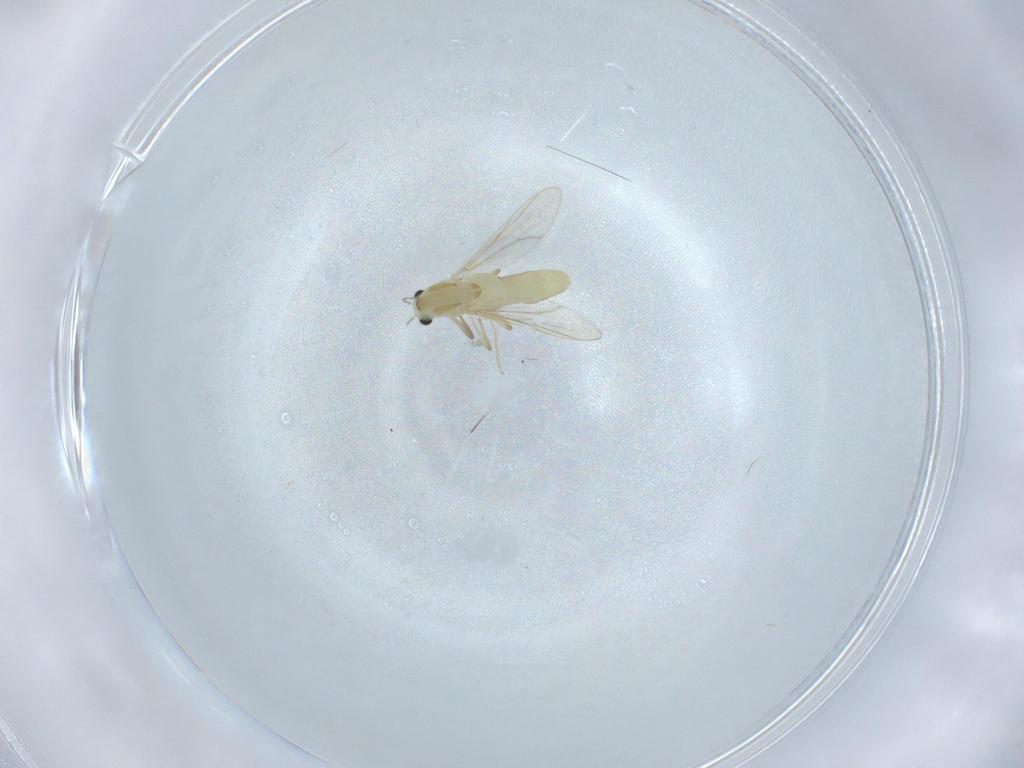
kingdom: Animalia
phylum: Arthropoda
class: Insecta
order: Diptera
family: Chironomidae
